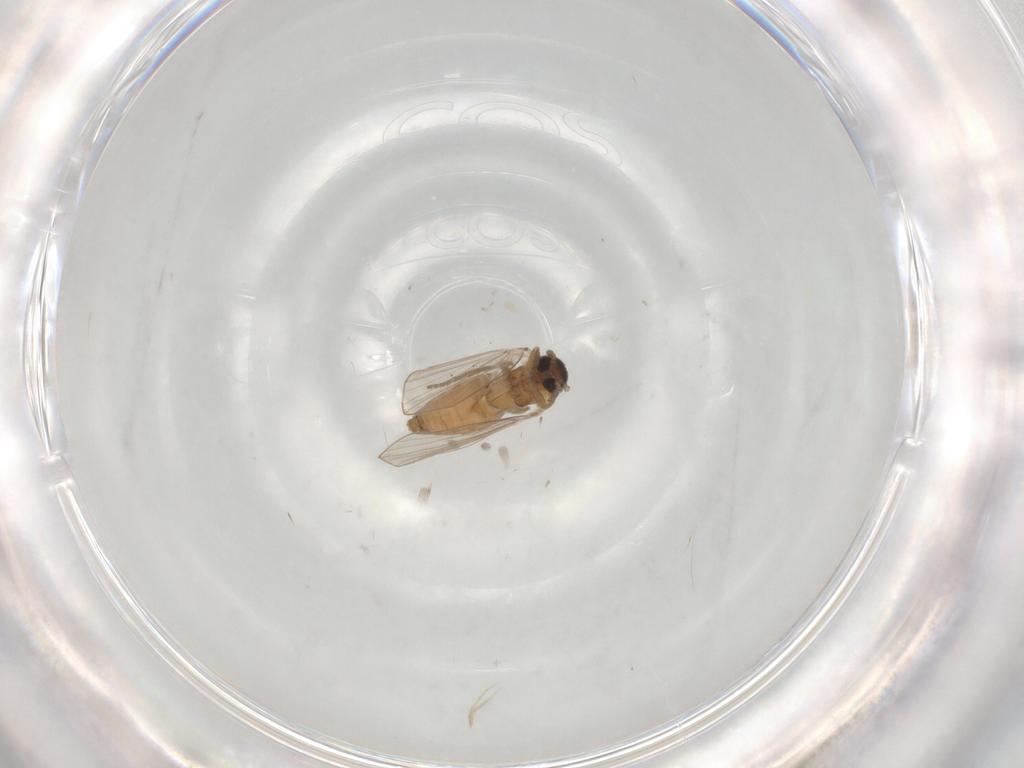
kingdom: Animalia
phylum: Arthropoda
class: Insecta
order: Diptera
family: Psychodidae
